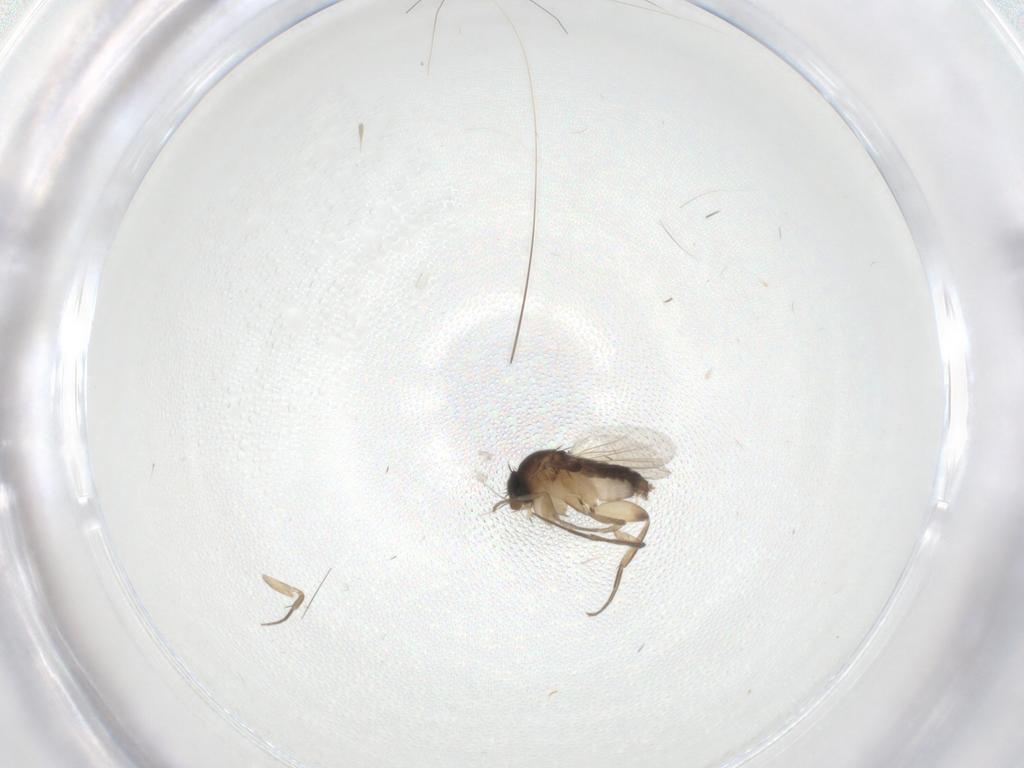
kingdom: Animalia
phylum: Arthropoda
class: Insecta
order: Diptera
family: Phoridae
